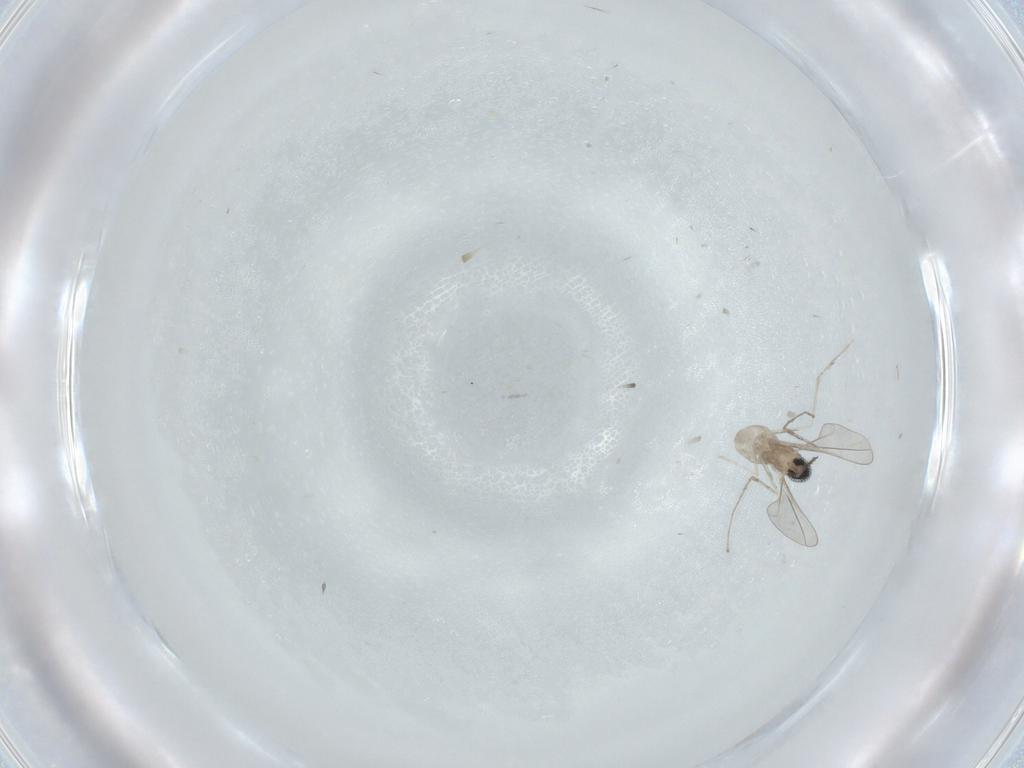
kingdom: Animalia
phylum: Arthropoda
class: Insecta
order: Diptera
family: Cecidomyiidae
